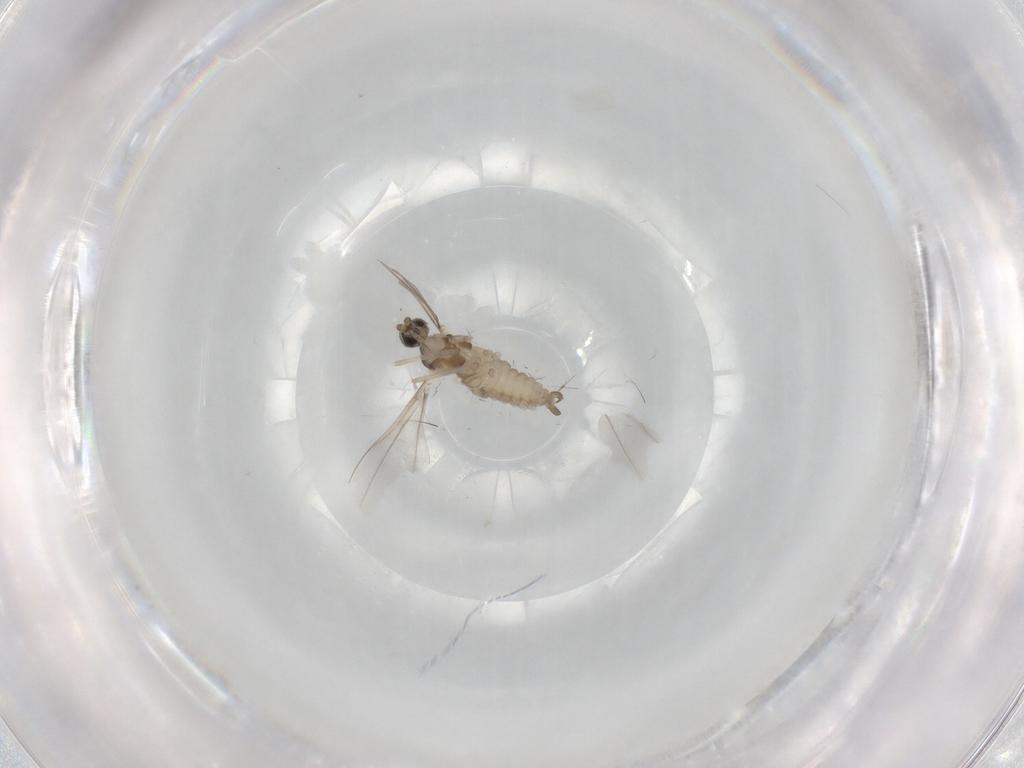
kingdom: Animalia
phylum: Arthropoda
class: Insecta
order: Diptera
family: Cecidomyiidae
